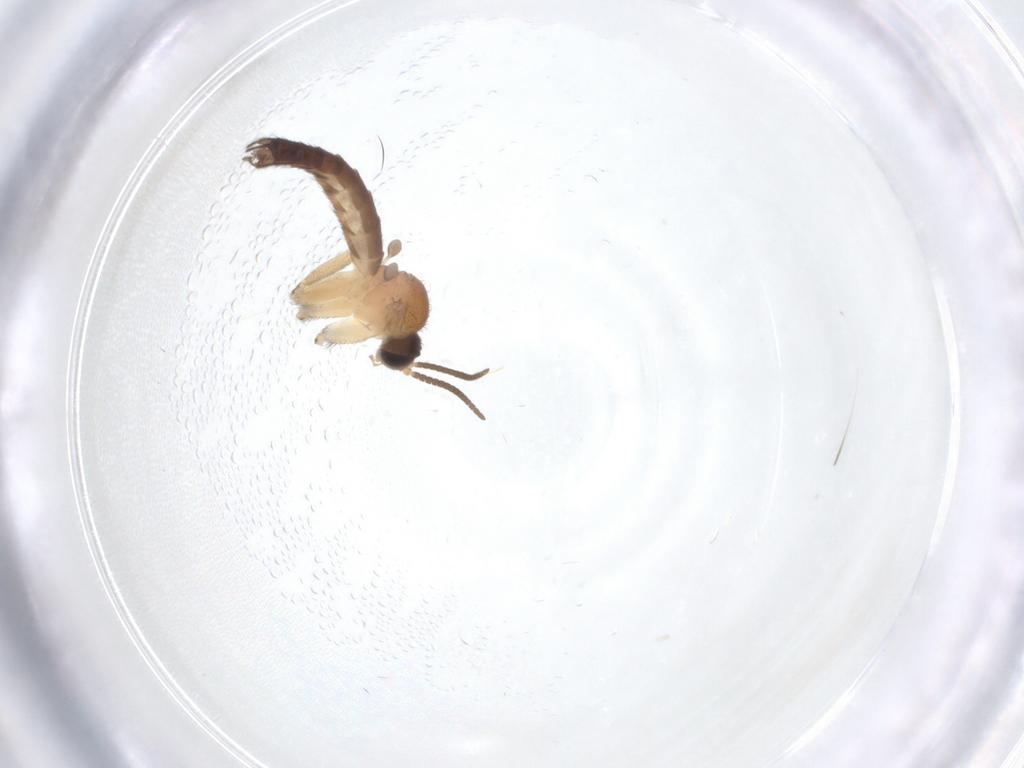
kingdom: Animalia
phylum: Arthropoda
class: Insecta
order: Diptera
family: Keroplatidae
